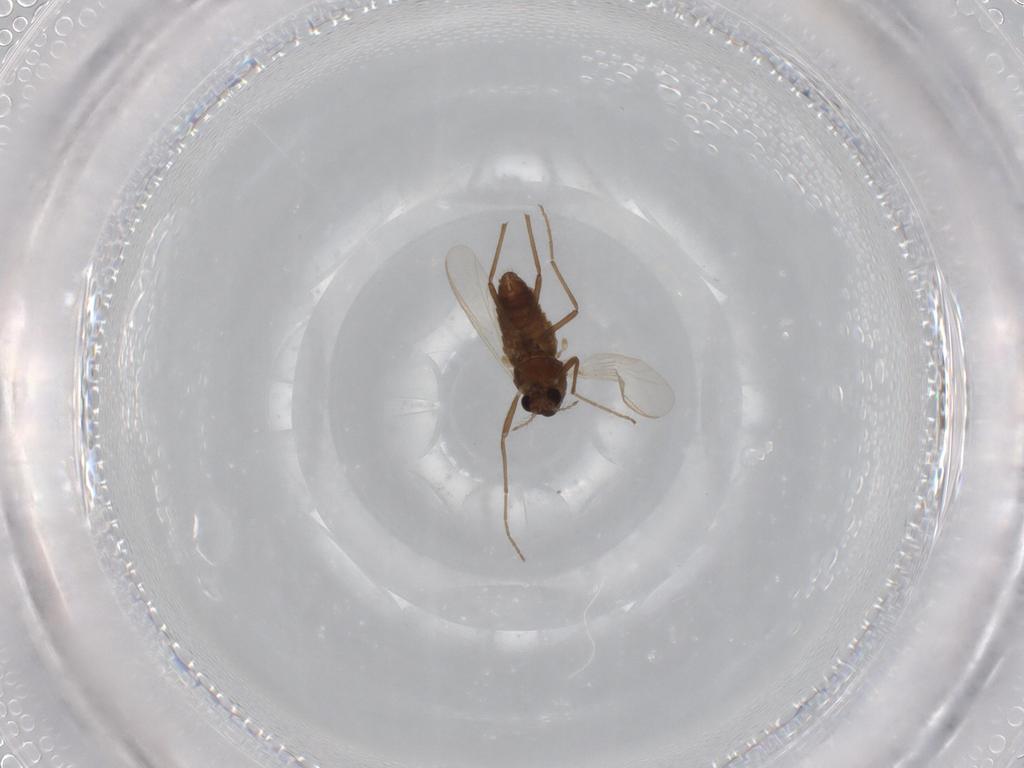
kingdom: Animalia
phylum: Arthropoda
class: Insecta
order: Diptera
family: Chironomidae
